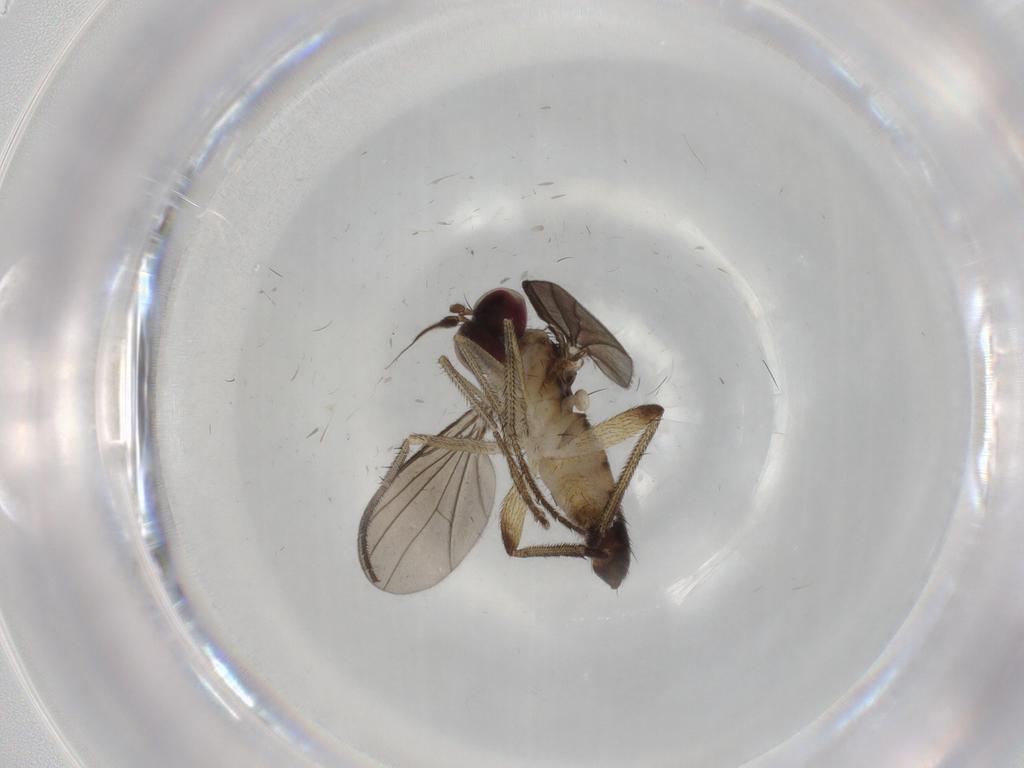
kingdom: Animalia
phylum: Arthropoda
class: Insecta
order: Diptera
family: Dolichopodidae
